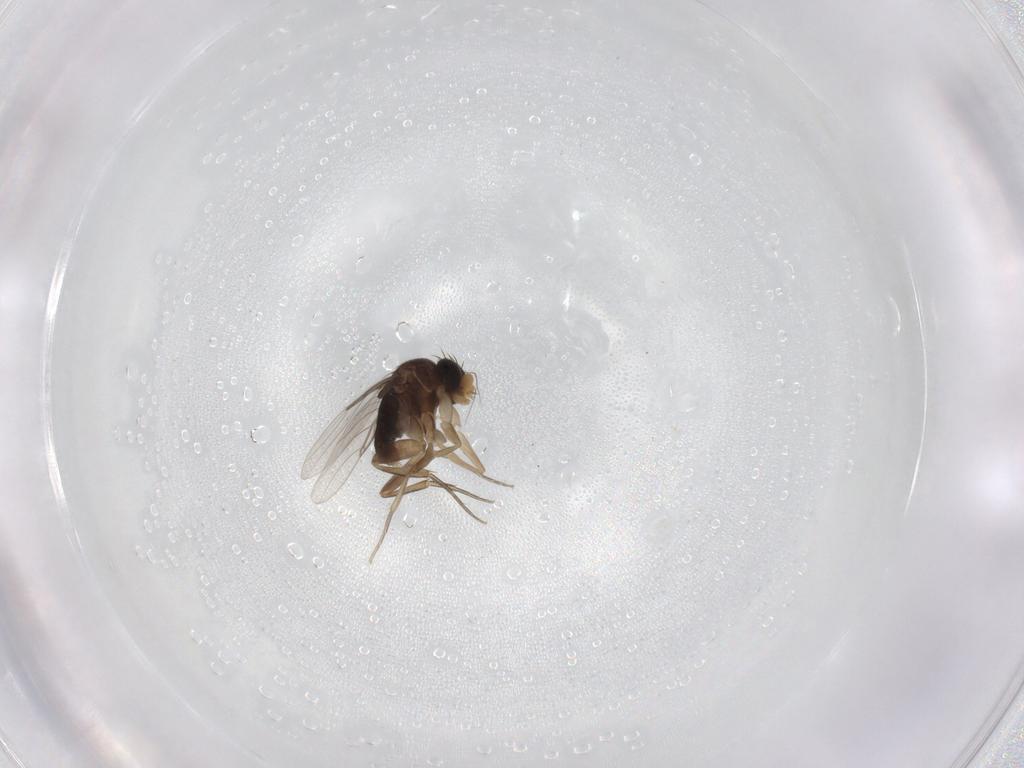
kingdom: Animalia
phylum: Arthropoda
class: Insecta
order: Diptera
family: Phoridae
